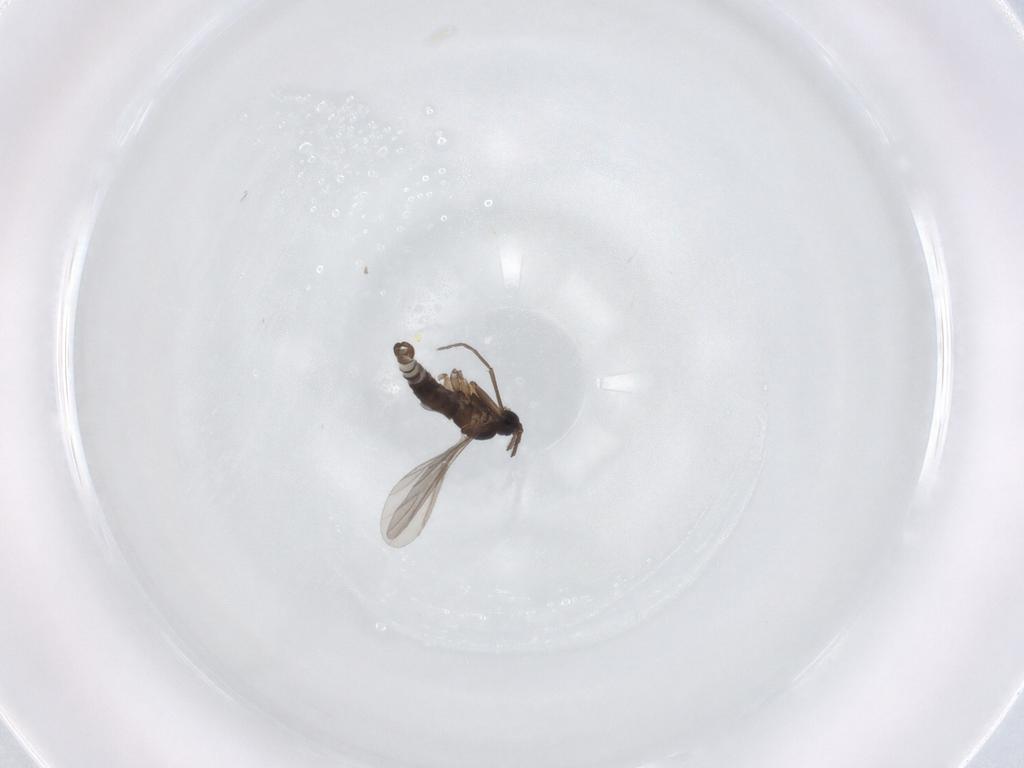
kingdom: Animalia
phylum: Arthropoda
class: Insecta
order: Diptera
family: Sciaridae
